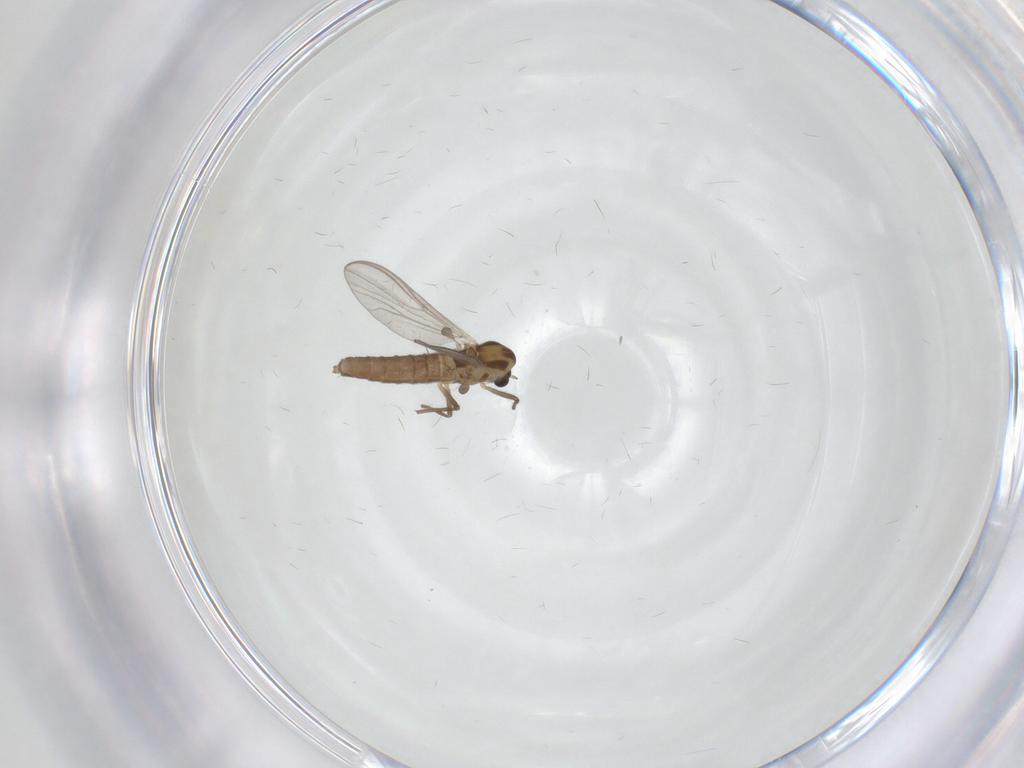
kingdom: Animalia
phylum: Arthropoda
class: Insecta
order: Diptera
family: Chironomidae
